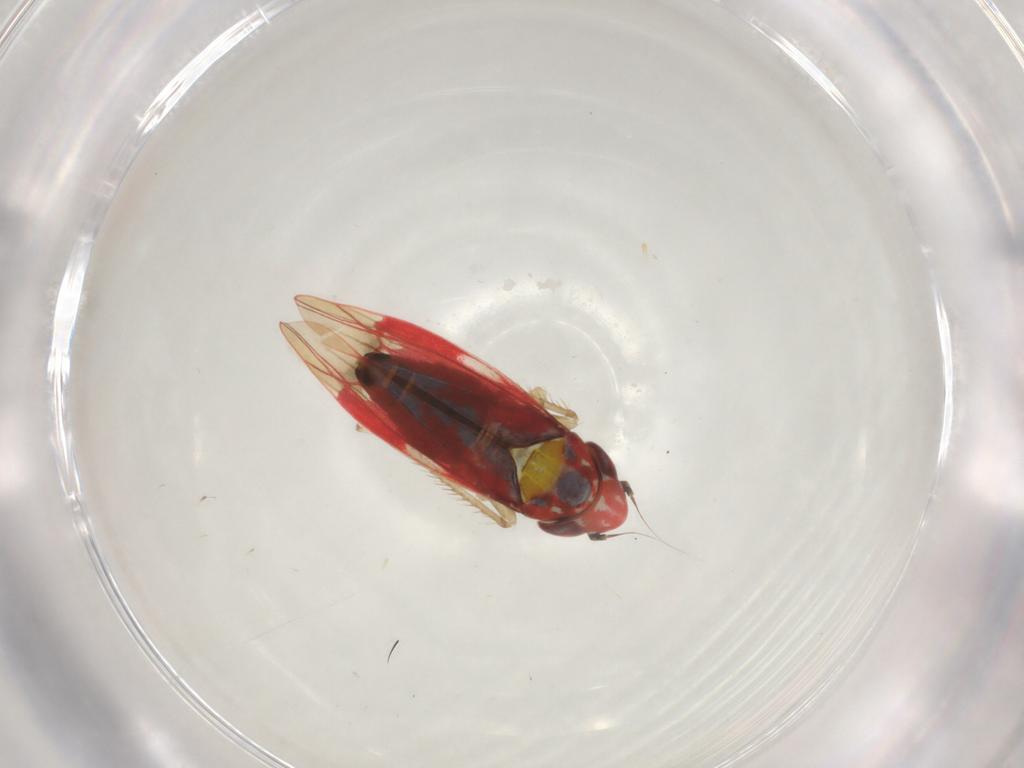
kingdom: Animalia
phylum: Arthropoda
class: Insecta
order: Hemiptera
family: Cicadellidae
